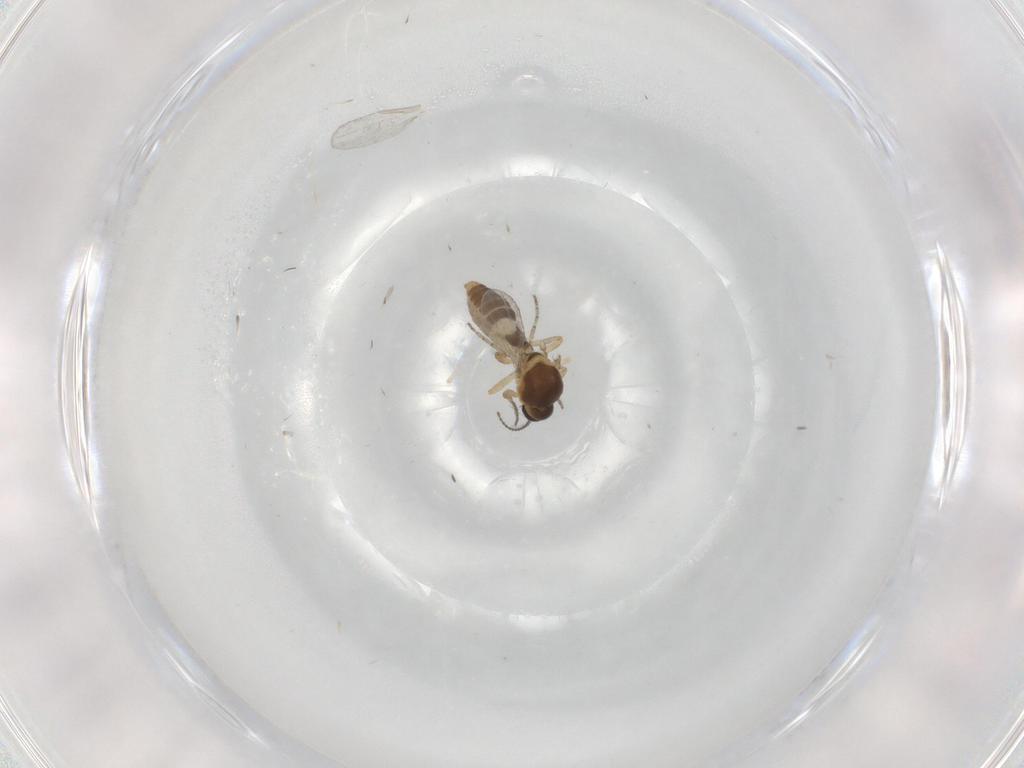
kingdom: Animalia
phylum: Arthropoda
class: Insecta
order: Diptera
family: Ceratopogonidae
